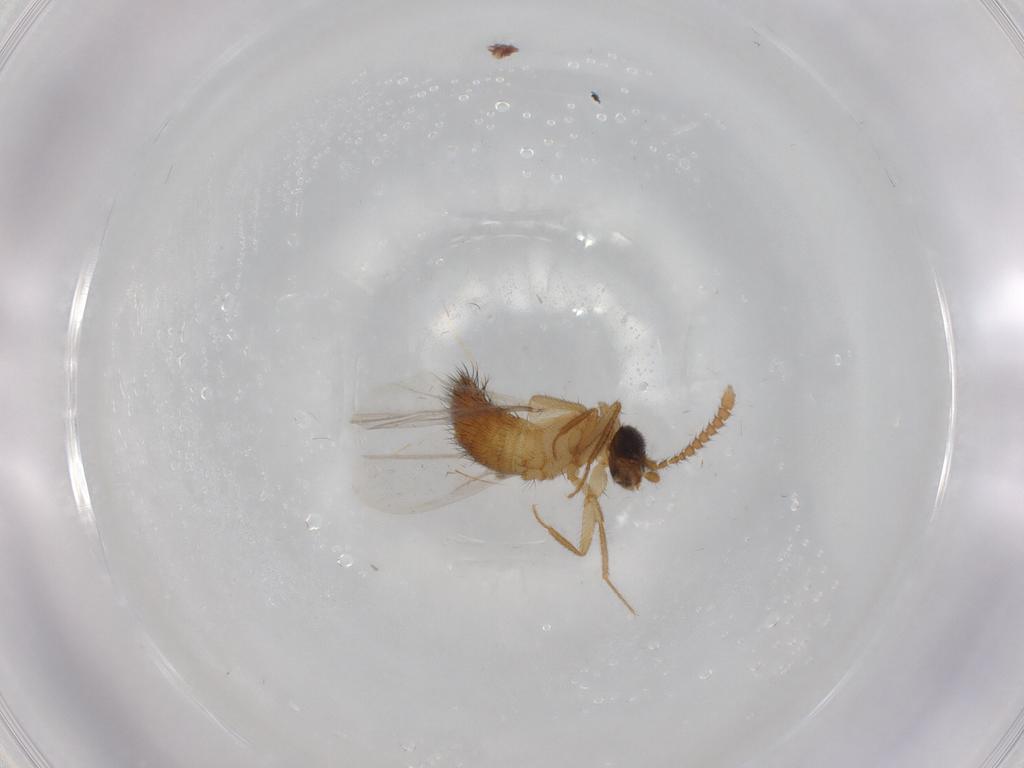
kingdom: Animalia
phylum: Arthropoda
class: Insecta
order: Coleoptera
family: Staphylinidae
